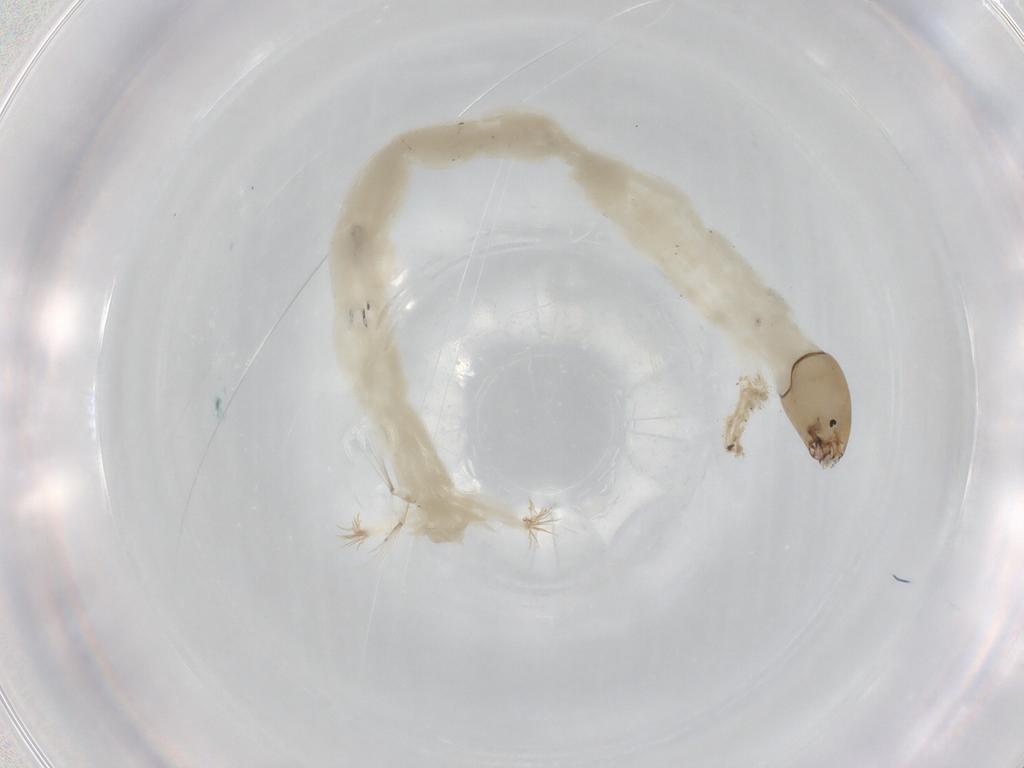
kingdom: Animalia
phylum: Arthropoda
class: Insecta
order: Diptera
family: Chironomidae
